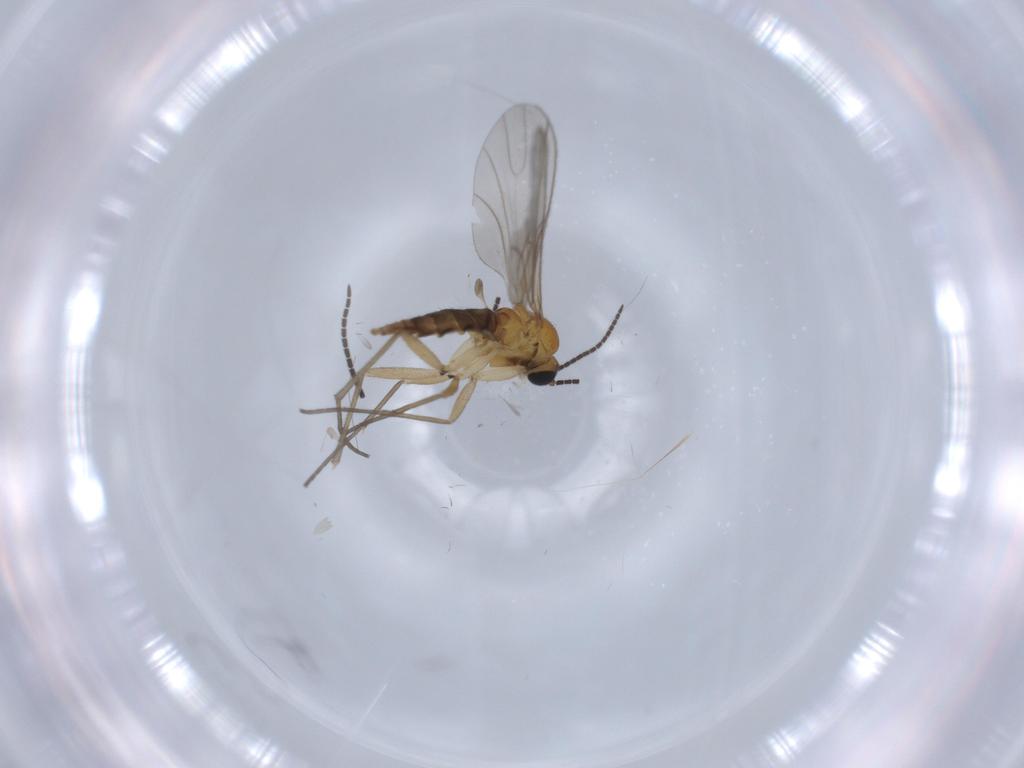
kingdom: Animalia
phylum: Arthropoda
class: Insecta
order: Diptera
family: Sciaridae
